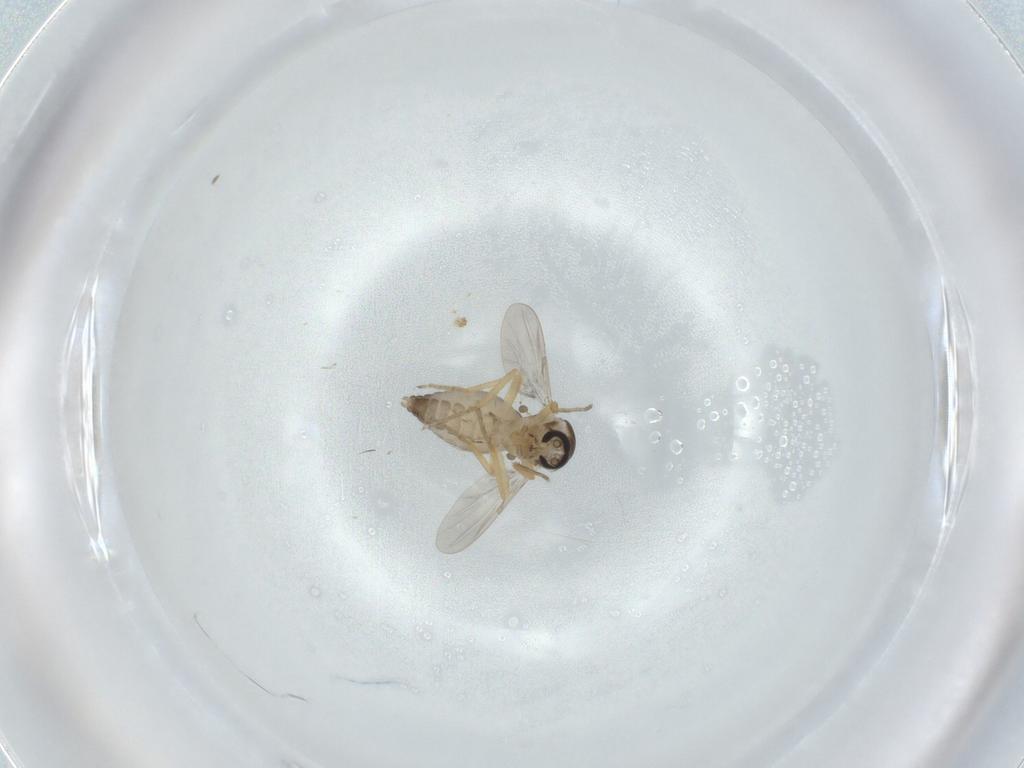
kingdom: Animalia
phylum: Arthropoda
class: Insecta
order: Diptera
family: Ceratopogonidae
